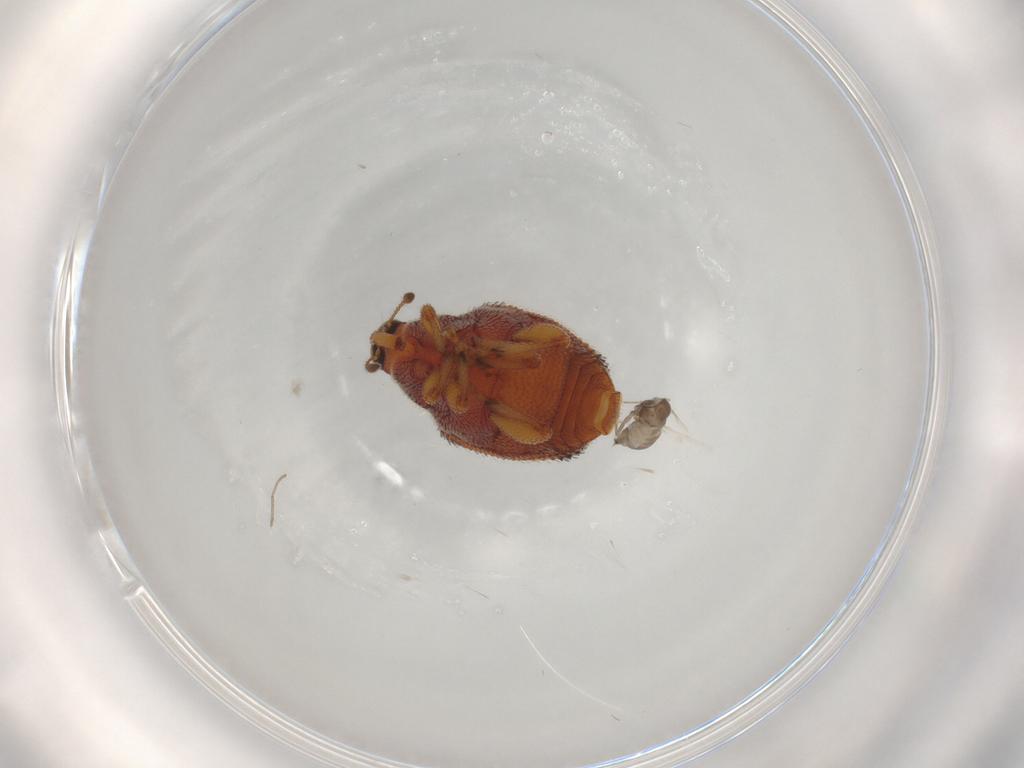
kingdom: Animalia
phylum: Arthropoda
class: Insecta
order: Coleoptera
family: Curculionidae
